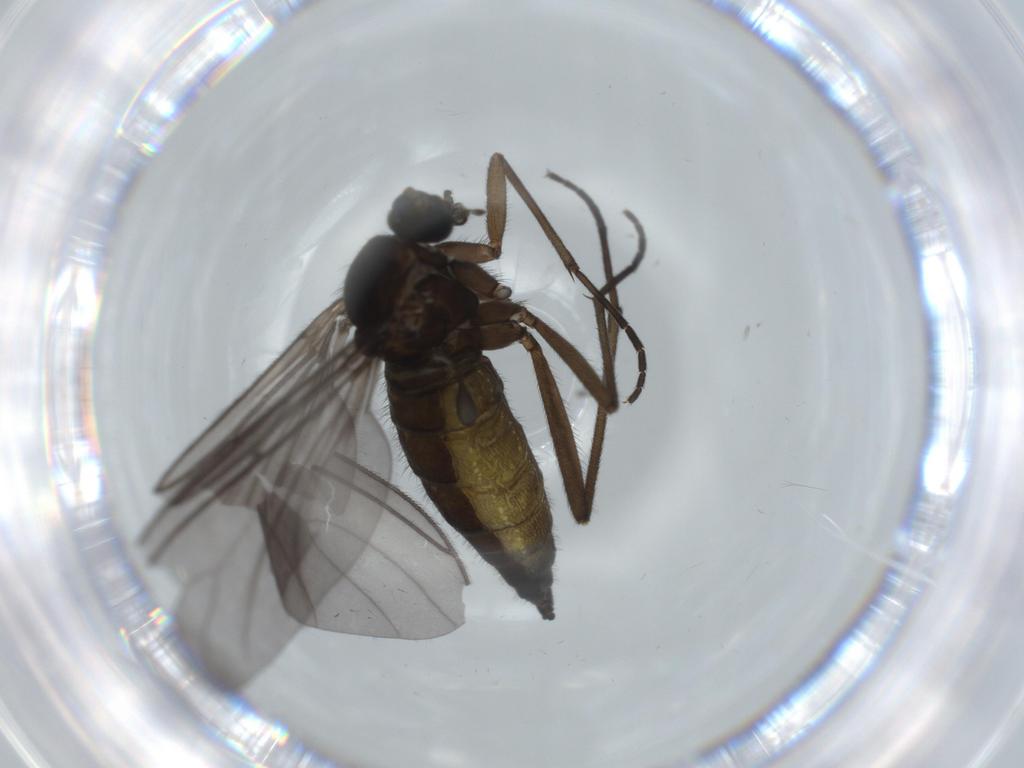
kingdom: Animalia
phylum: Arthropoda
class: Insecta
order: Diptera
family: Sciaridae
